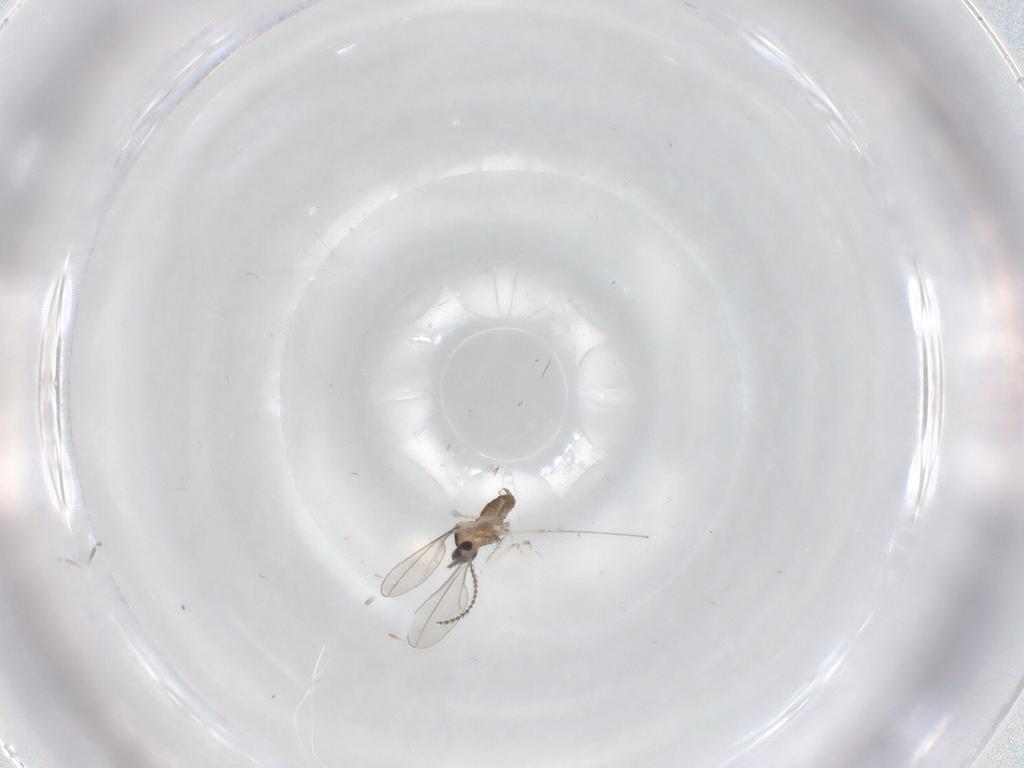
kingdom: Animalia
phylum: Arthropoda
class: Insecta
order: Diptera
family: Cecidomyiidae
